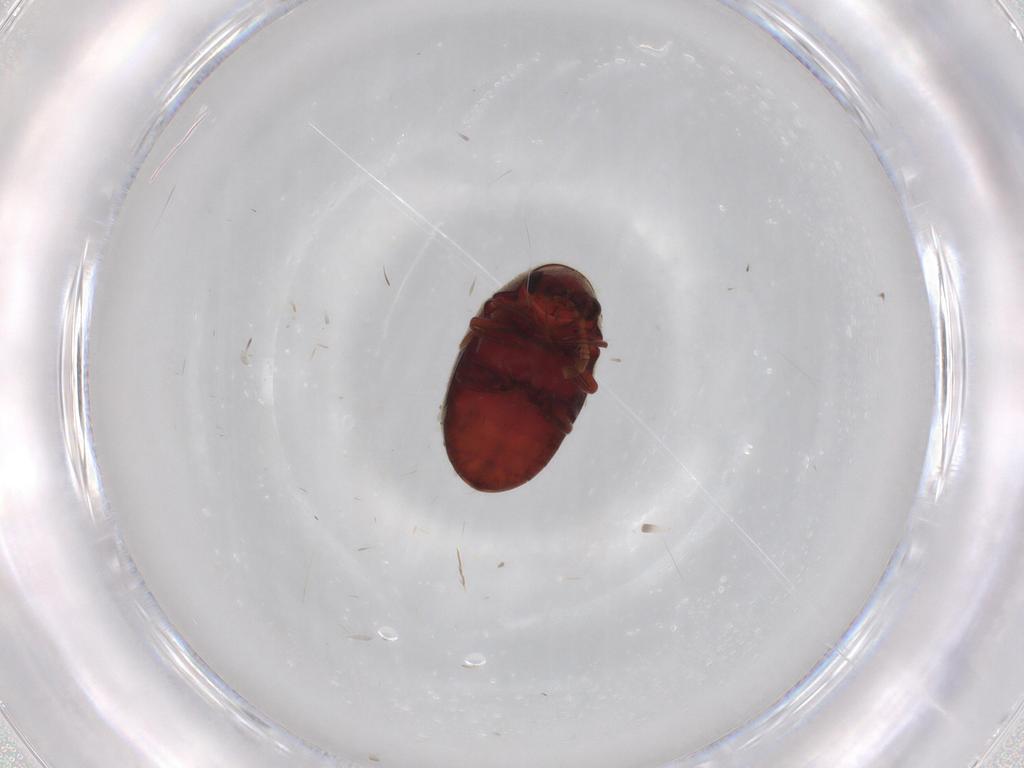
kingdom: Animalia
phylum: Arthropoda
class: Insecta
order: Coleoptera
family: Ptinidae
